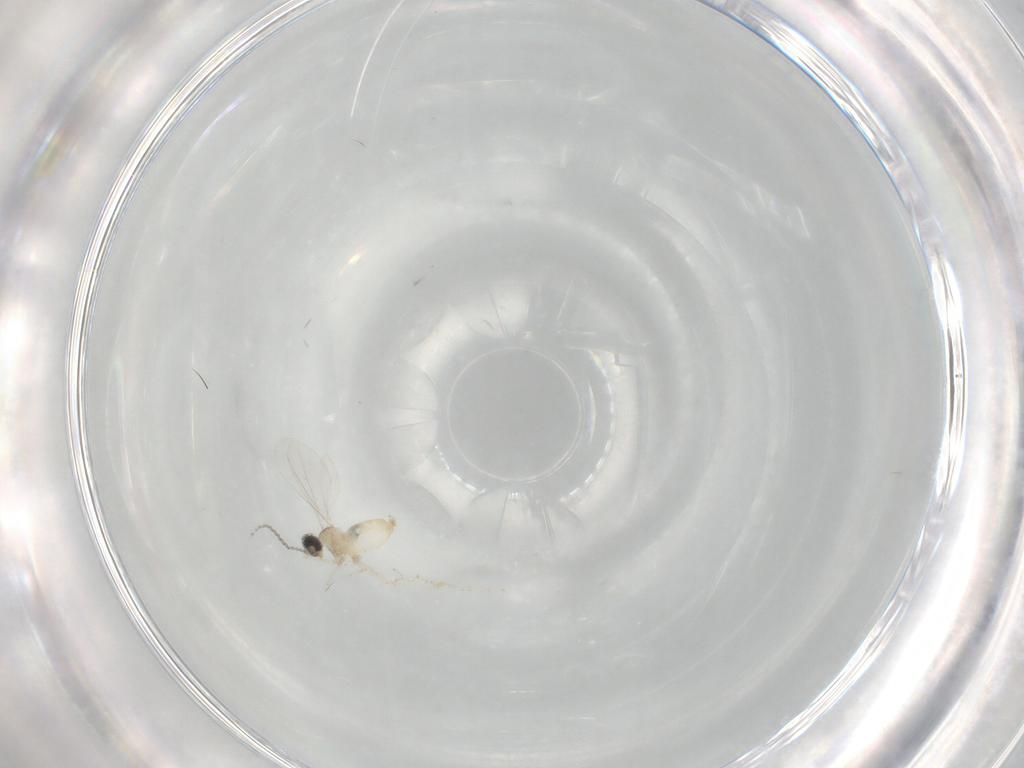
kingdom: Animalia
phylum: Arthropoda
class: Insecta
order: Diptera
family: Cecidomyiidae
